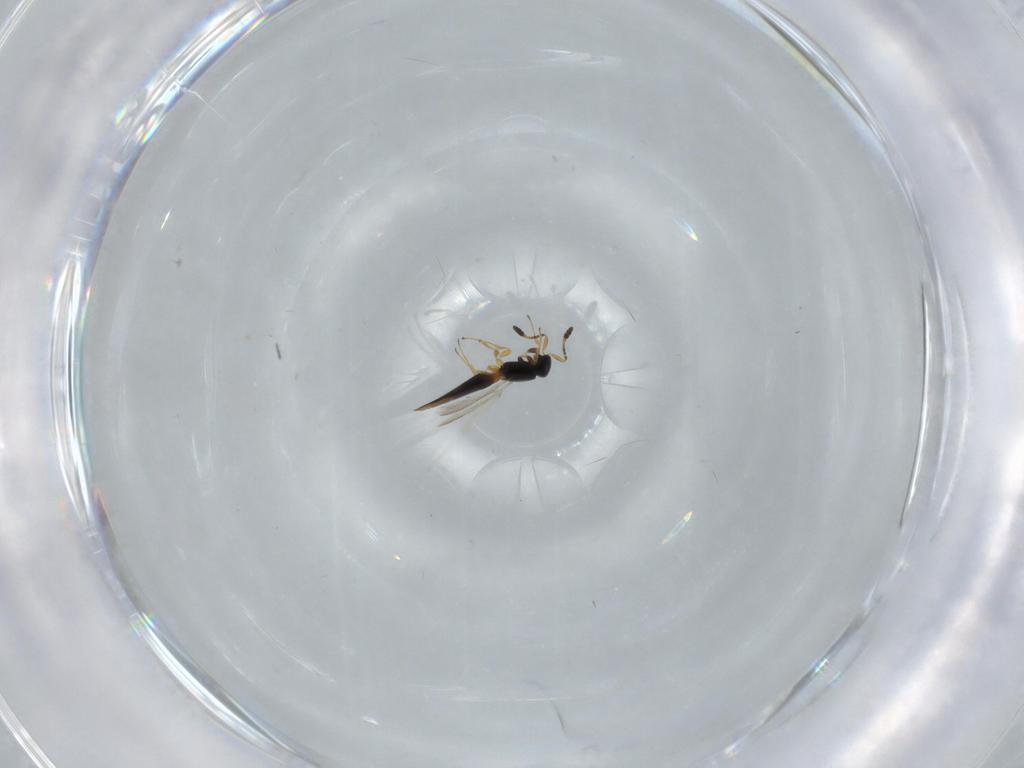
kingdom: Animalia
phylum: Arthropoda
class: Insecta
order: Hymenoptera
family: Scelionidae
